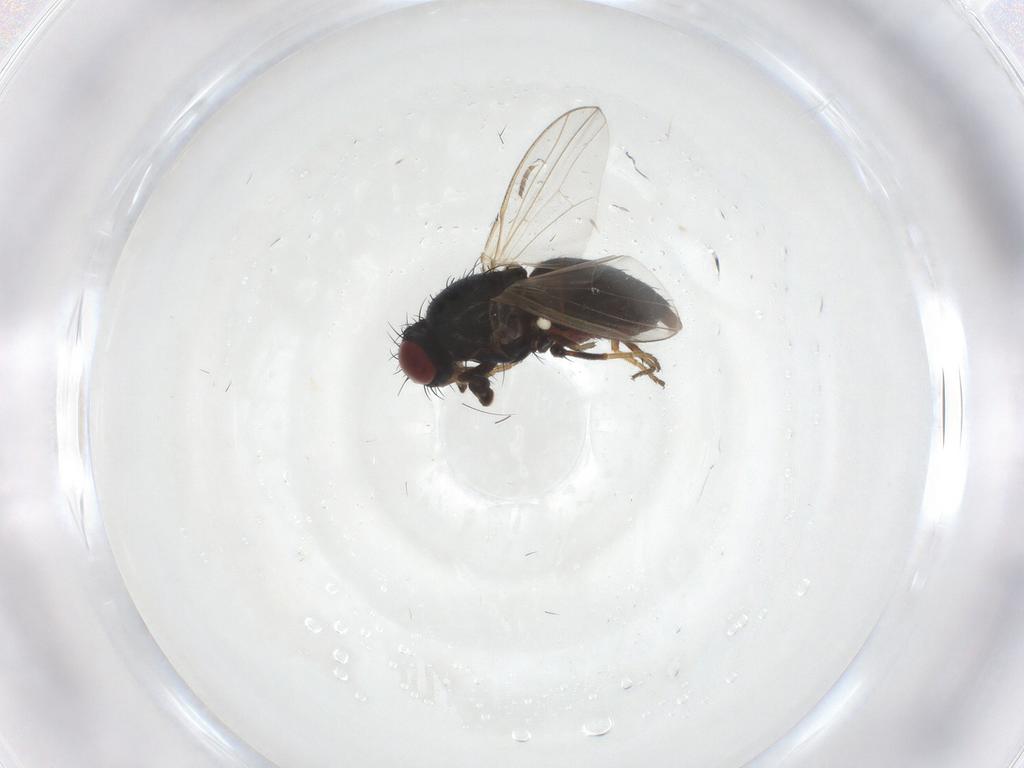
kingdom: Animalia
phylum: Arthropoda
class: Insecta
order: Diptera
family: Carnidae
